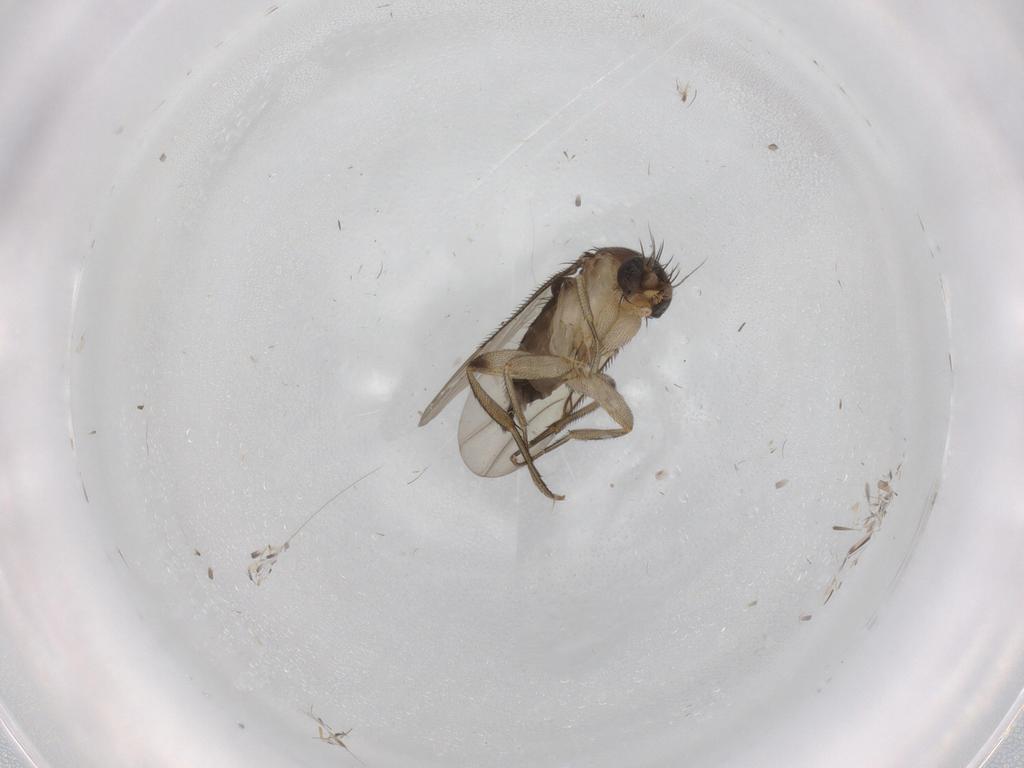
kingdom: Animalia
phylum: Arthropoda
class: Insecta
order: Diptera
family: Phoridae
